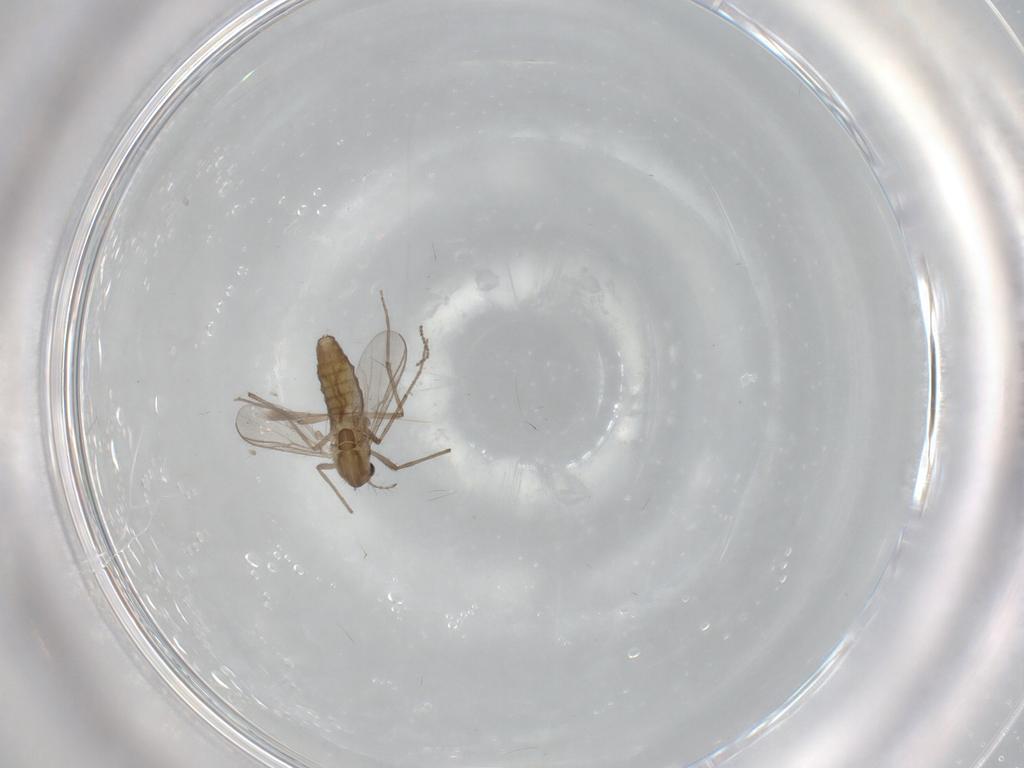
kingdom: Animalia
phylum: Arthropoda
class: Insecta
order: Diptera
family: Chironomidae
